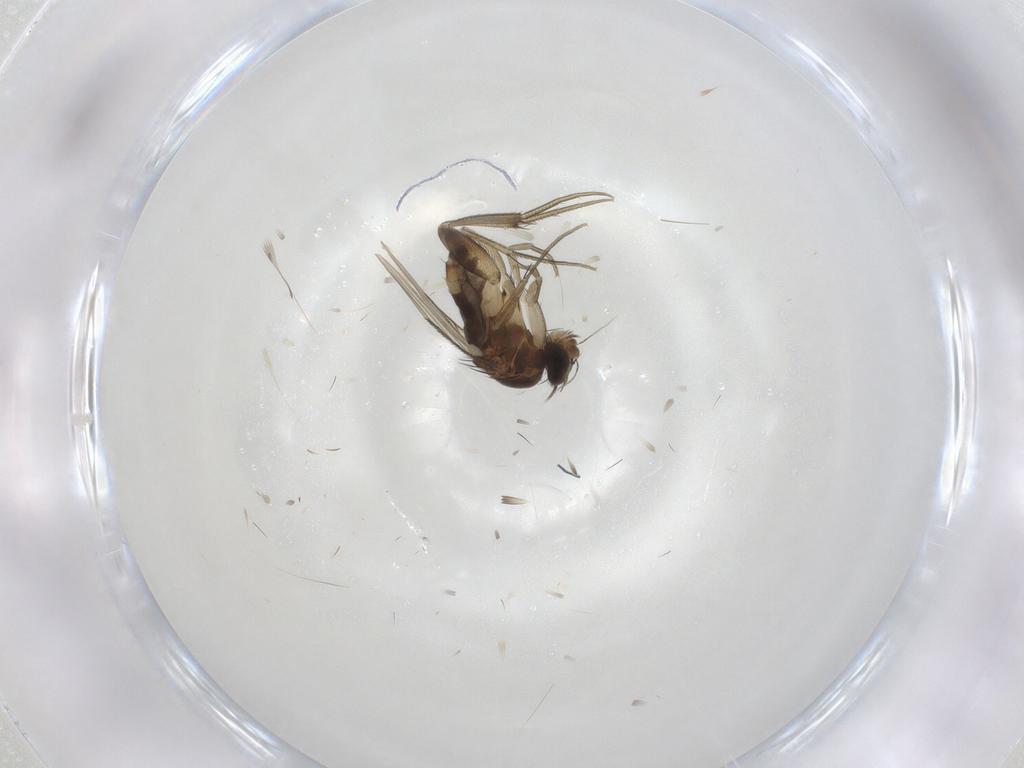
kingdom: Animalia
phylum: Arthropoda
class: Insecta
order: Diptera
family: Phoridae
